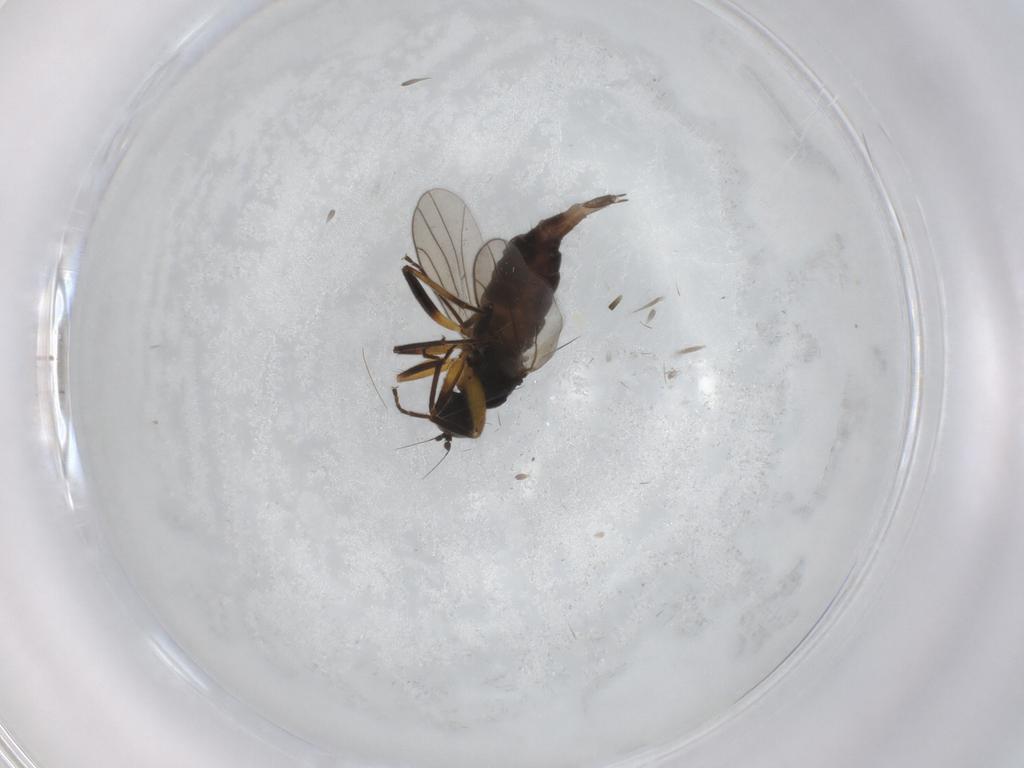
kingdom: Animalia
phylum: Arthropoda
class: Insecta
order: Diptera
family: Hybotidae
